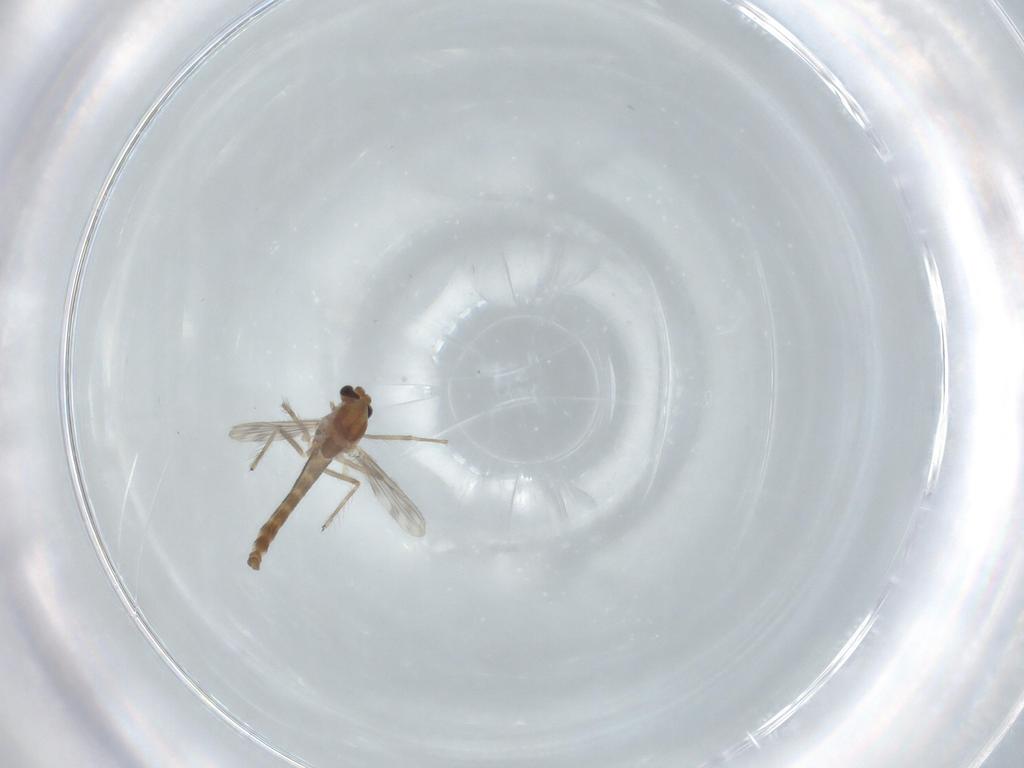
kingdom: Animalia
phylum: Arthropoda
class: Insecta
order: Diptera
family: Chironomidae
